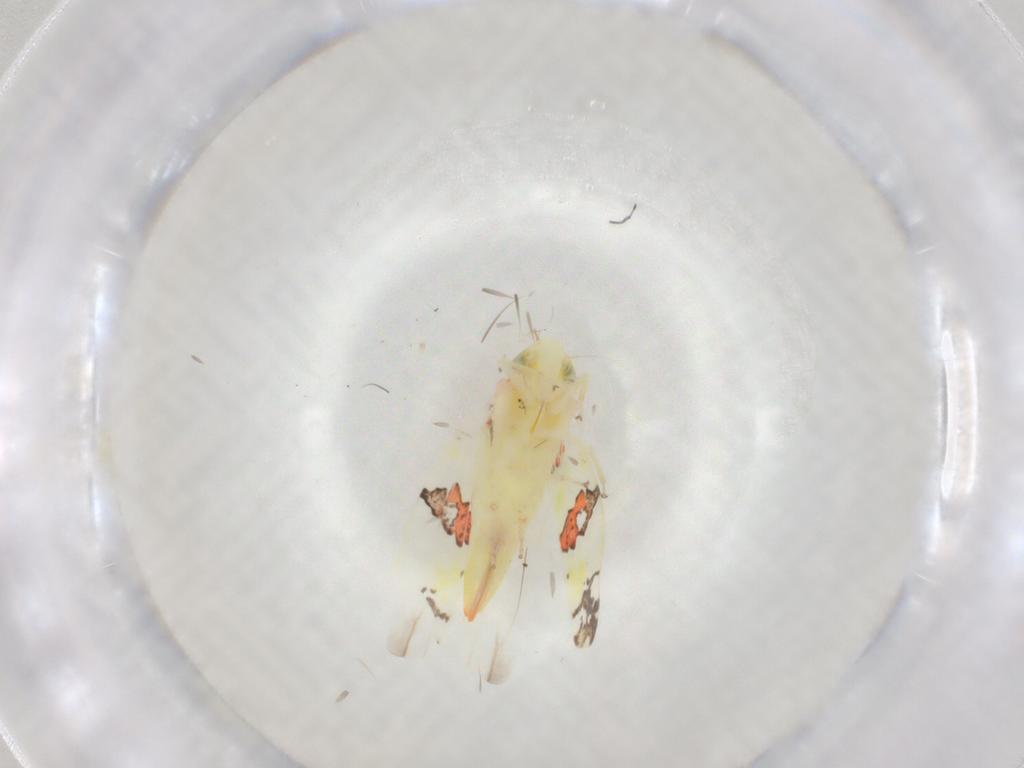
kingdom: Animalia
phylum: Arthropoda
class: Insecta
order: Hemiptera
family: Cicadellidae
